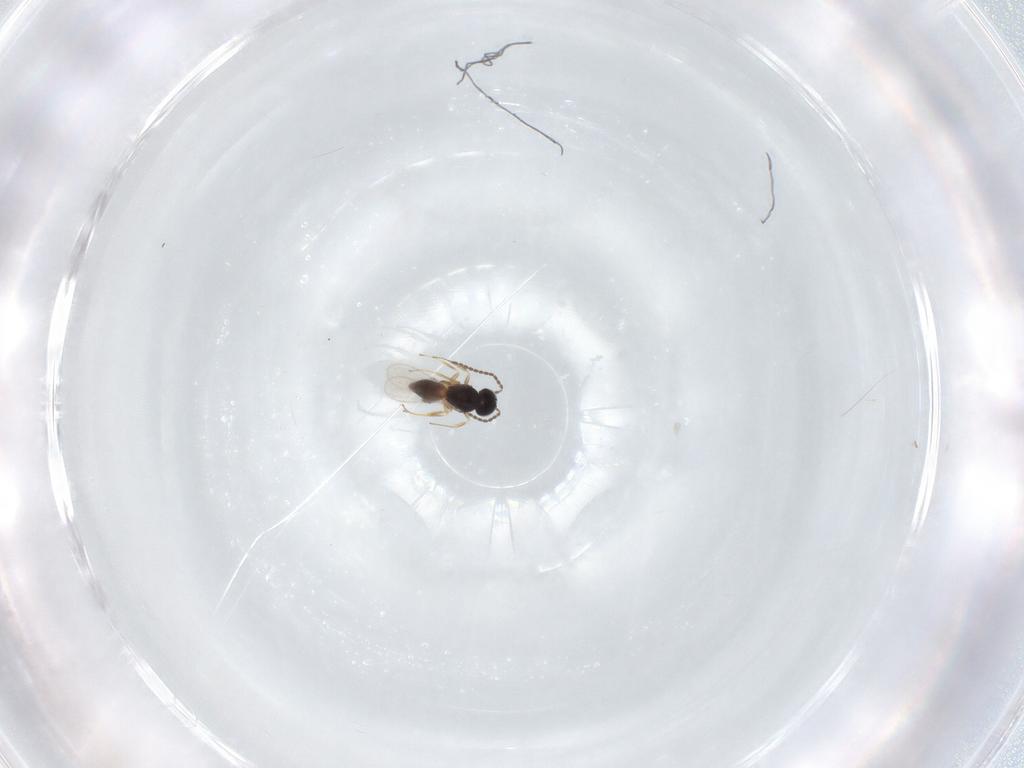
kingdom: Animalia
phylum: Arthropoda
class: Insecta
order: Hymenoptera
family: Scelionidae
